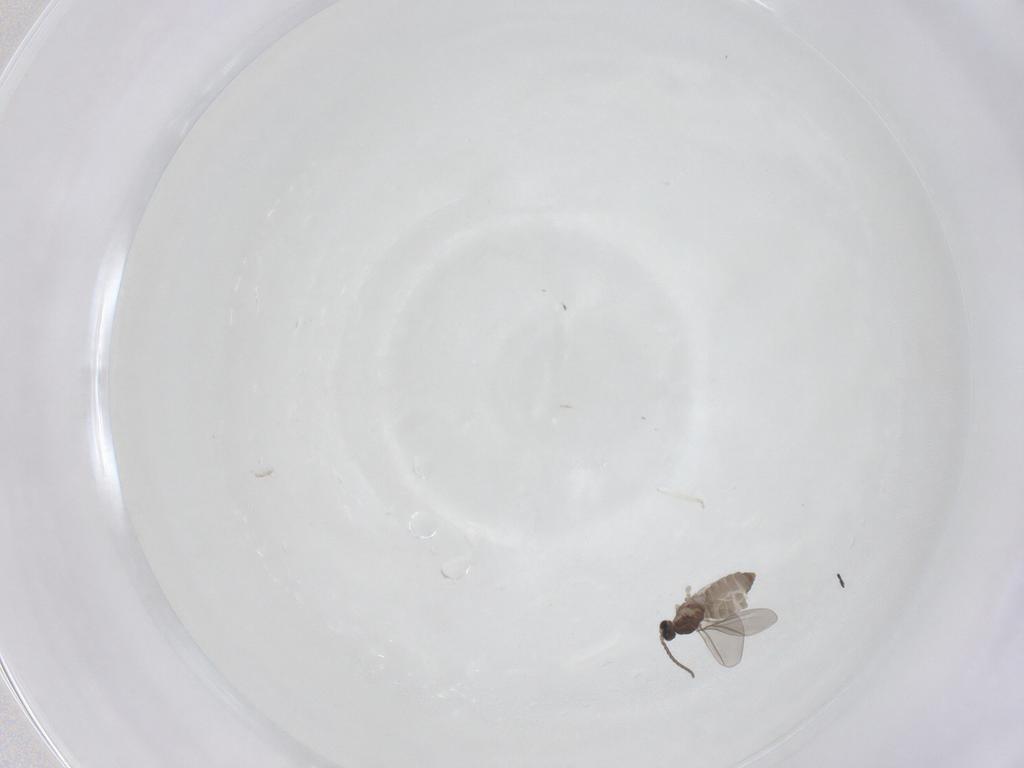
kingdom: Animalia
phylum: Arthropoda
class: Insecta
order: Diptera
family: Cecidomyiidae
